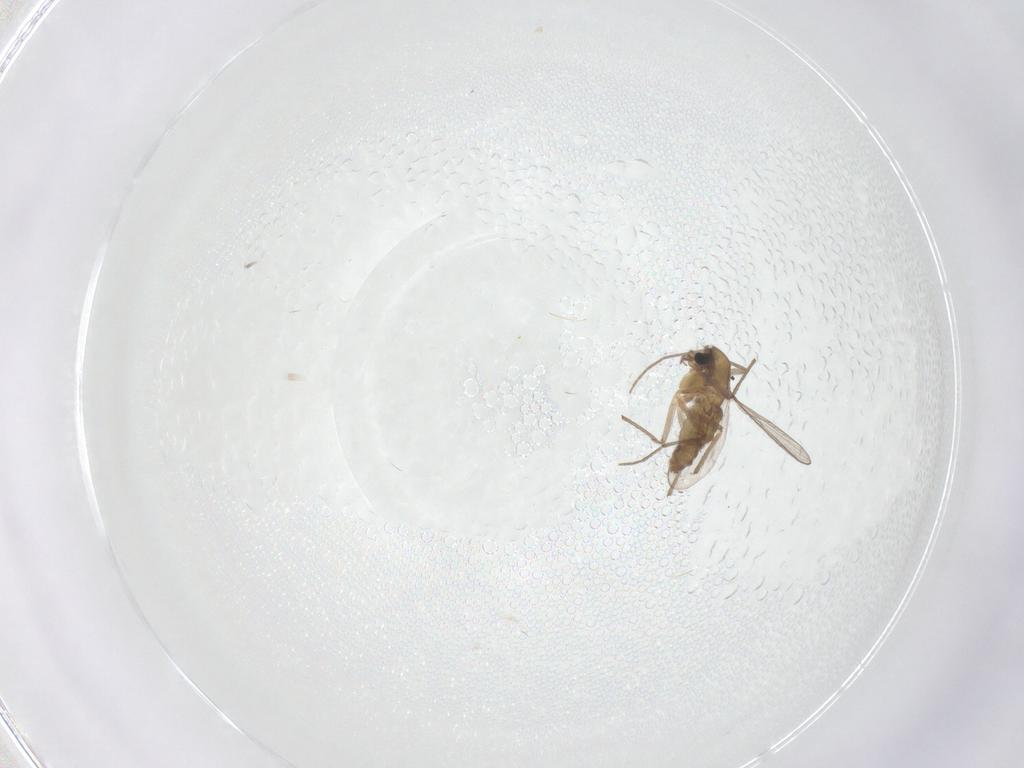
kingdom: Animalia
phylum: Arthropoda
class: Insecta
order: Diptera
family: Chironomidae
